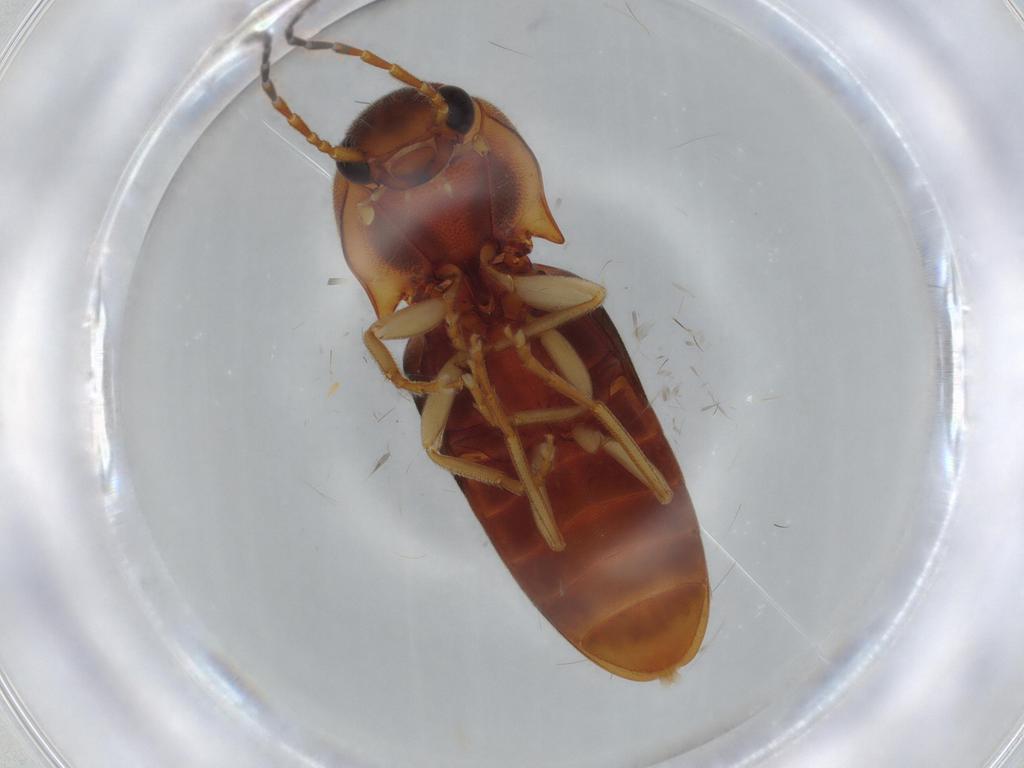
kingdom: Animalia
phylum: Arthropoda
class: Insecta
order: Coleoptera
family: Elateridae
